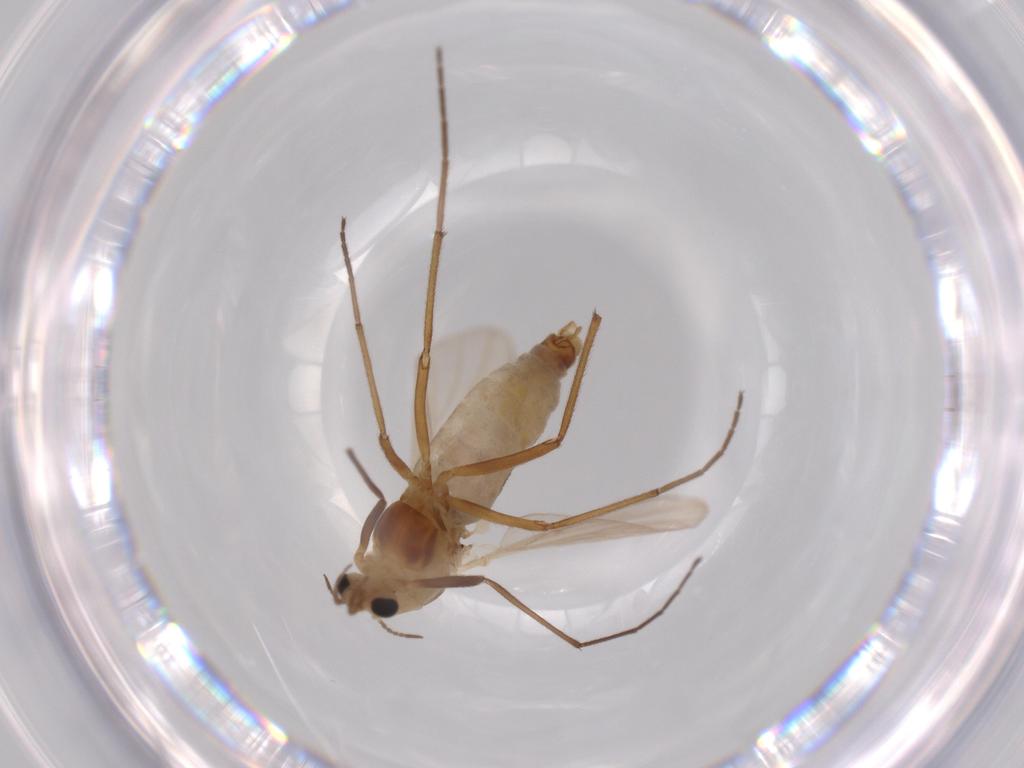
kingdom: Animalia
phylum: Arthropoda
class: Insecta
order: Diptera
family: Sciaridae
